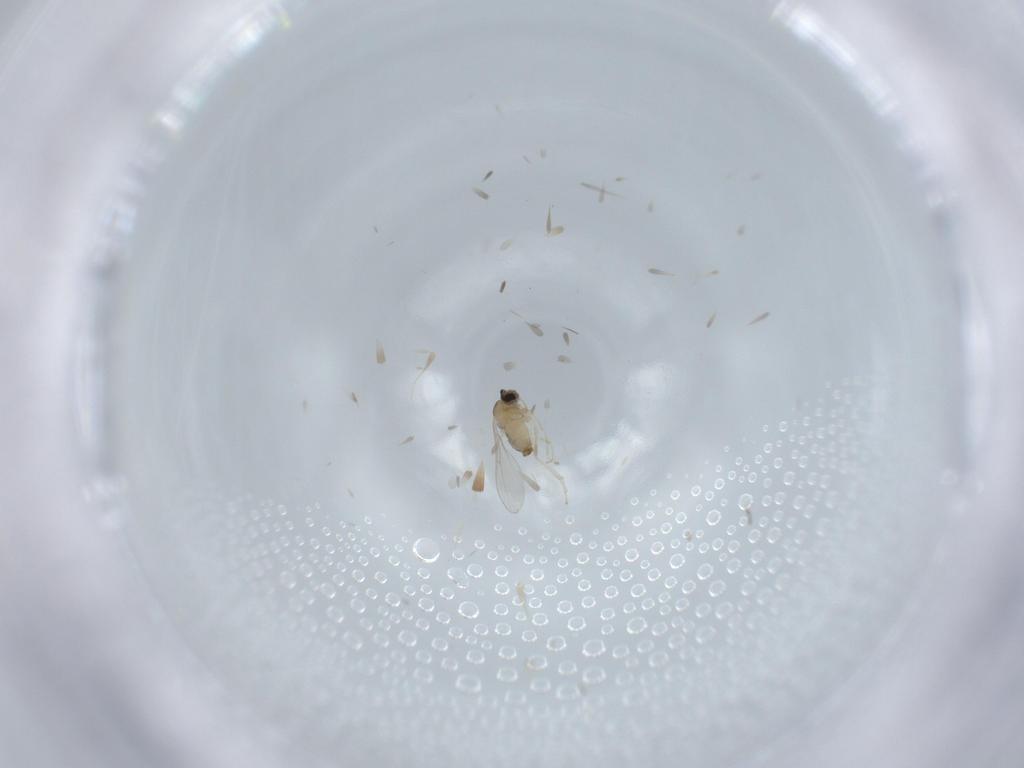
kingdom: Animalia
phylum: Arthropoda
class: Insecta
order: Diptera
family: Cecidomyiidae
